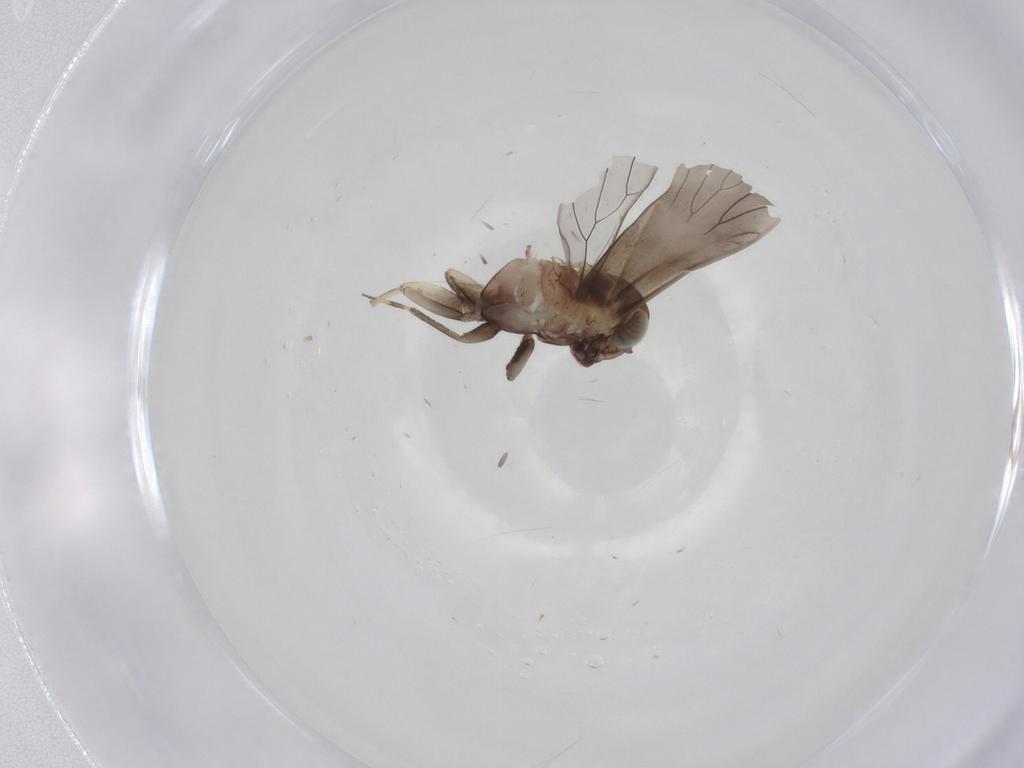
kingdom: Animalia
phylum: Arthropoda
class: Insecta
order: Psocodea
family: Amphientomidae
